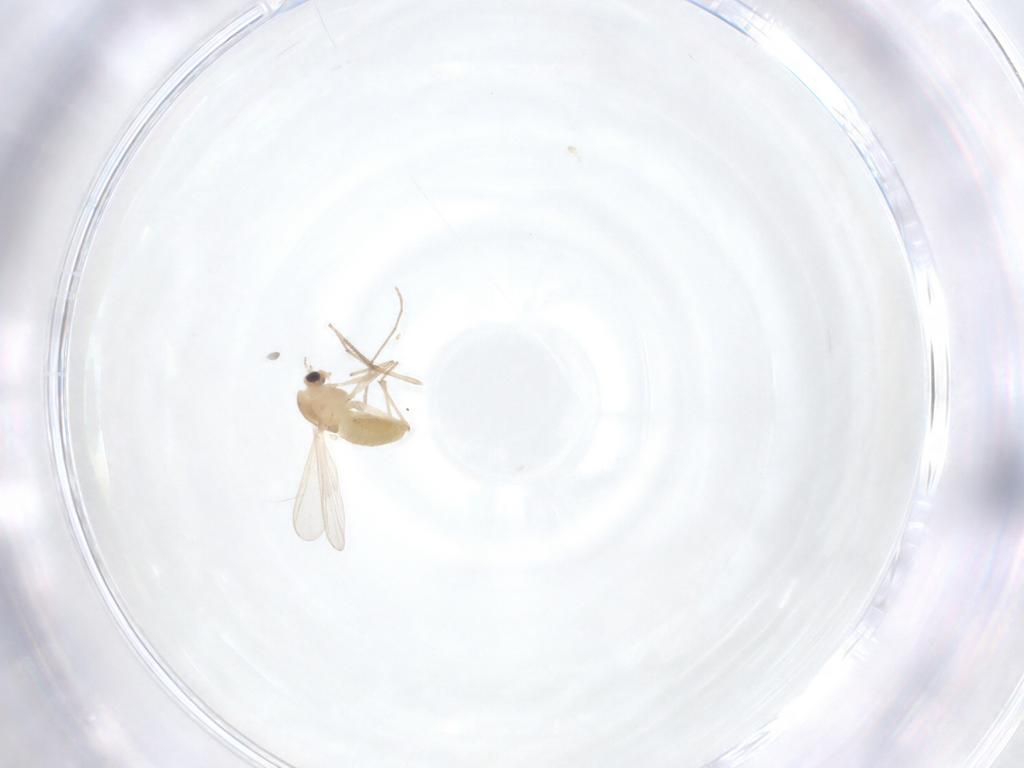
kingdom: Animalia
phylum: Arthropoda
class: Insecta
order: Diptera
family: Chironomidae
